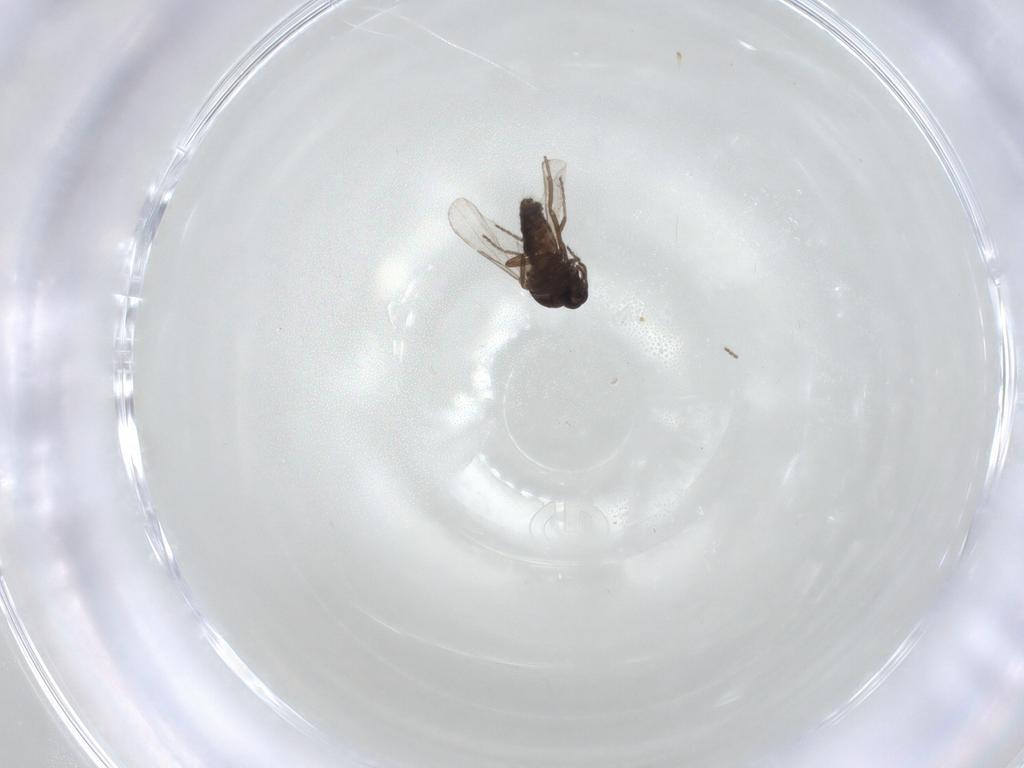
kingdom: Animalia
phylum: Arthropoda
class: Insecta
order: Diptera
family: Ceratopogonidae
